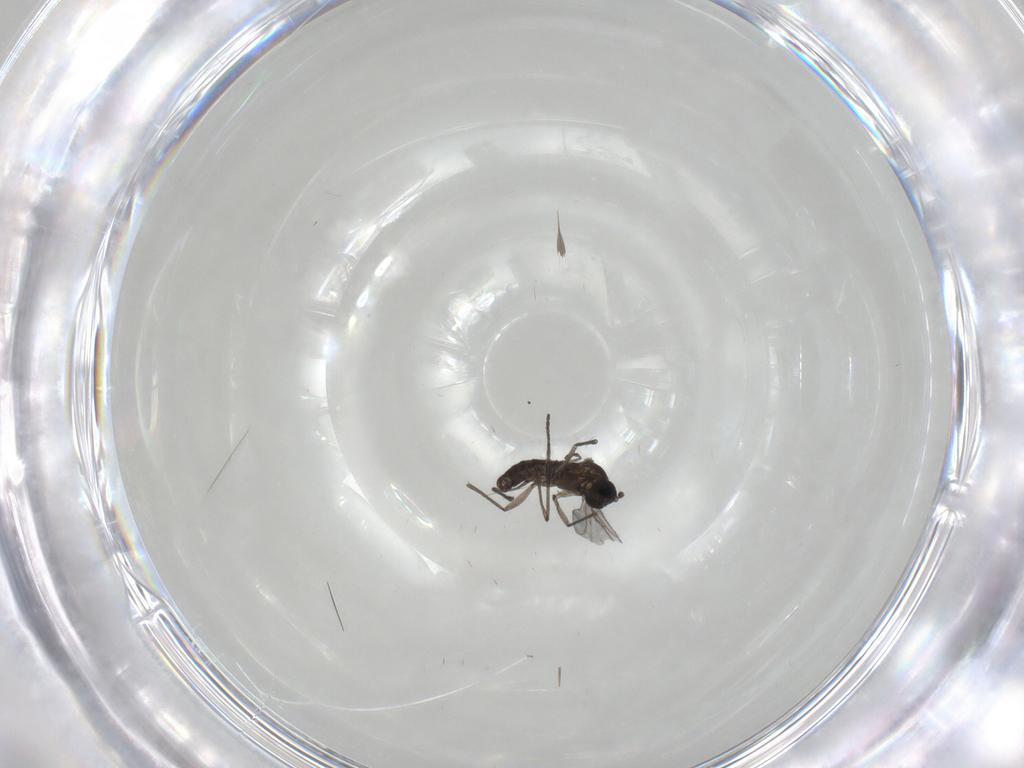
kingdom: Animalia
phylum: Arthropoda
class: Insecta
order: Diptera
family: Sciaridae
